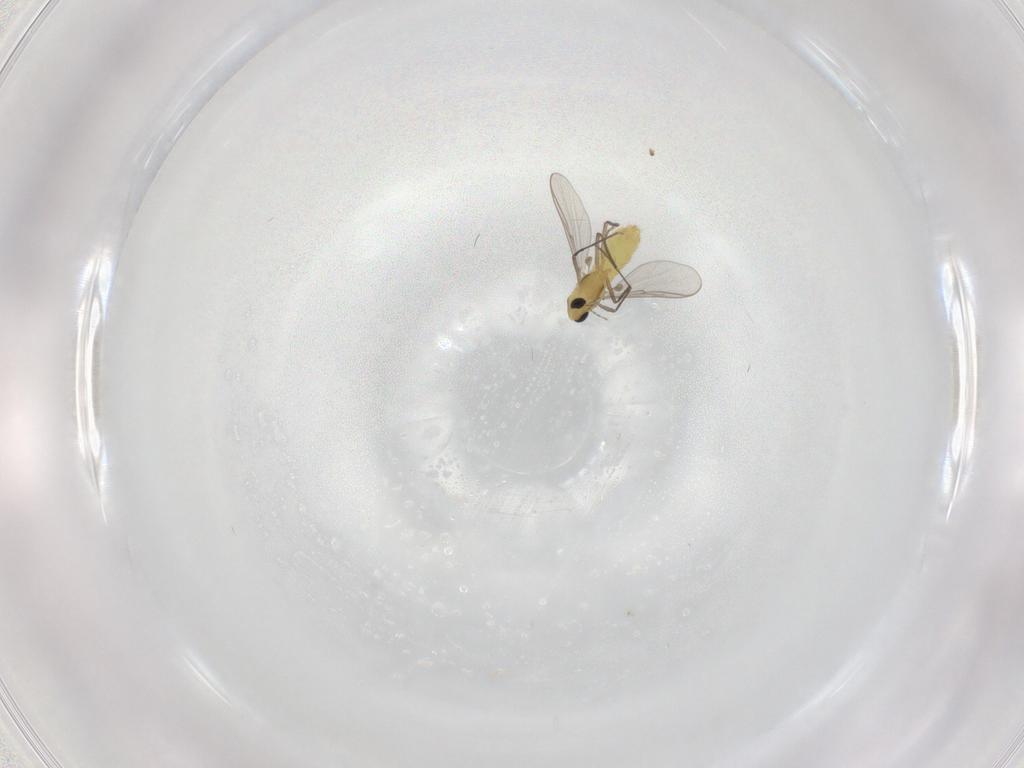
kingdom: Animalia
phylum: Arthropoda
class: Insecta
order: Diptera
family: Chironomidae
